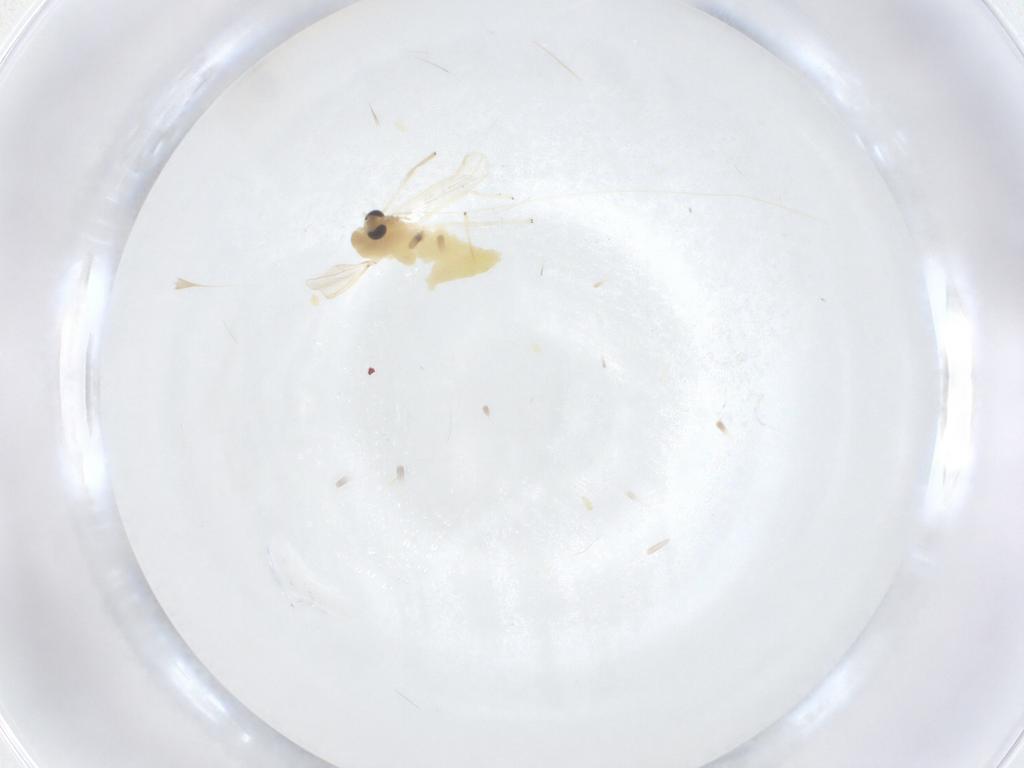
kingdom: Animalia
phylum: Arthropoda
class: Insecta
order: Diptera
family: Chironomidae
